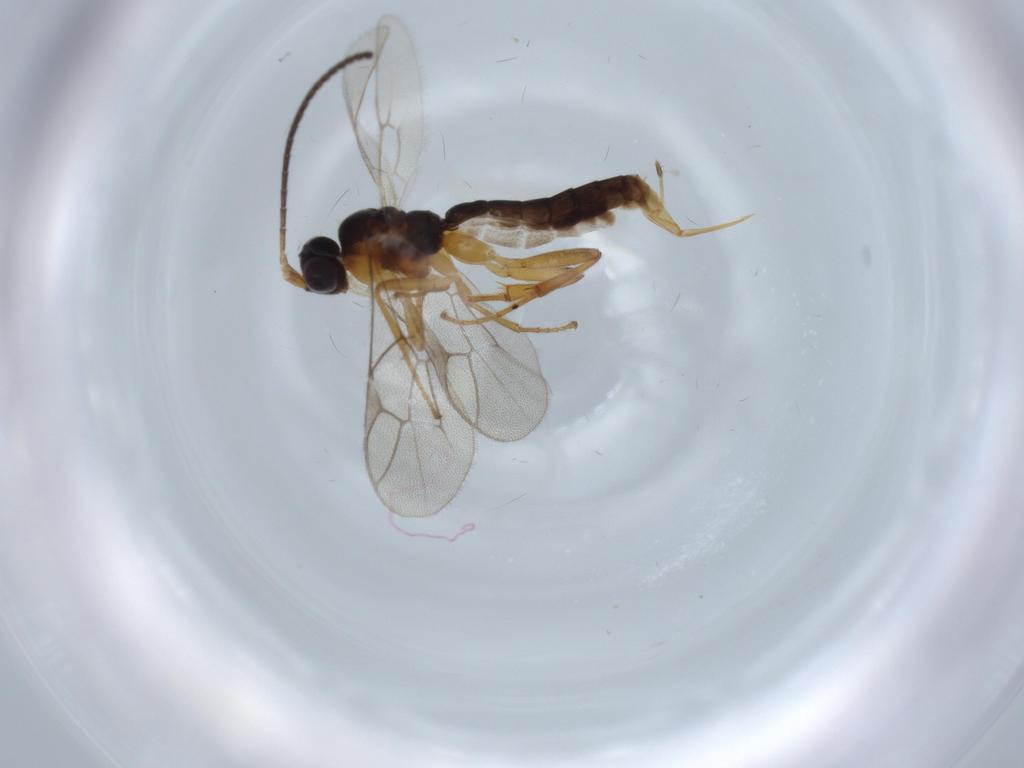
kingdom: Animalia
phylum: Arthropoda
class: Insecta
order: Hymenoptera
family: Ichneumonidae
